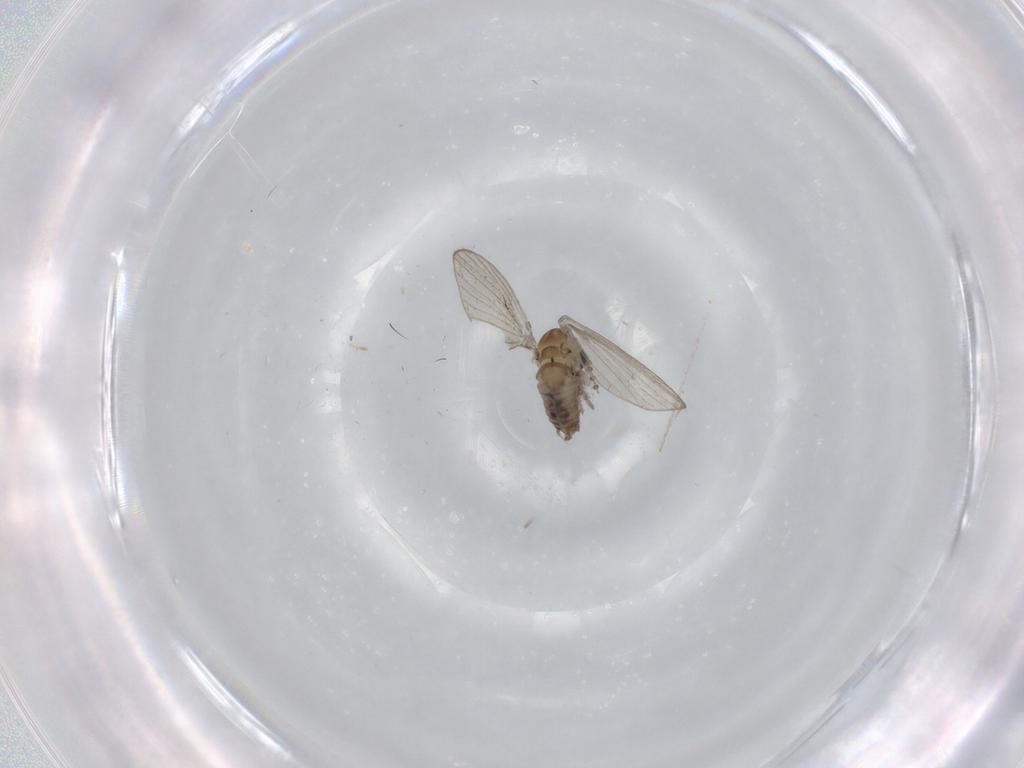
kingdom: Animalia
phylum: Arthropoda
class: Insecta
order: Diptera
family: Psychodidae
